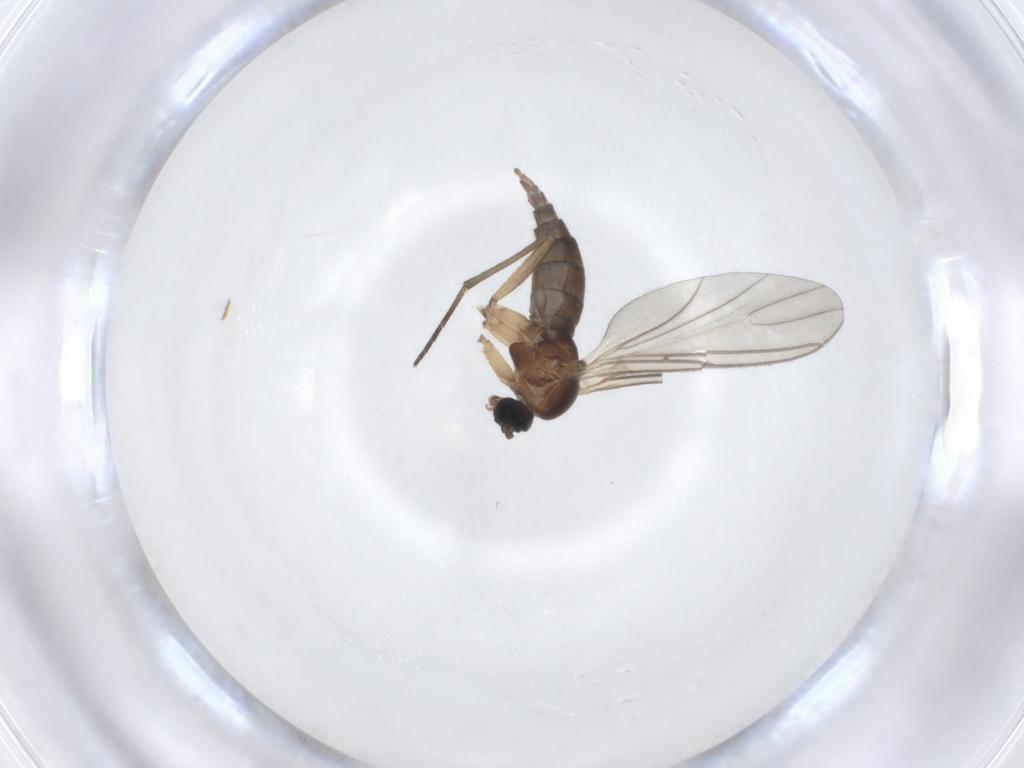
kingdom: Animalia
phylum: Arthropoda
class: Insecta
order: Diptera
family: Sciaridae
